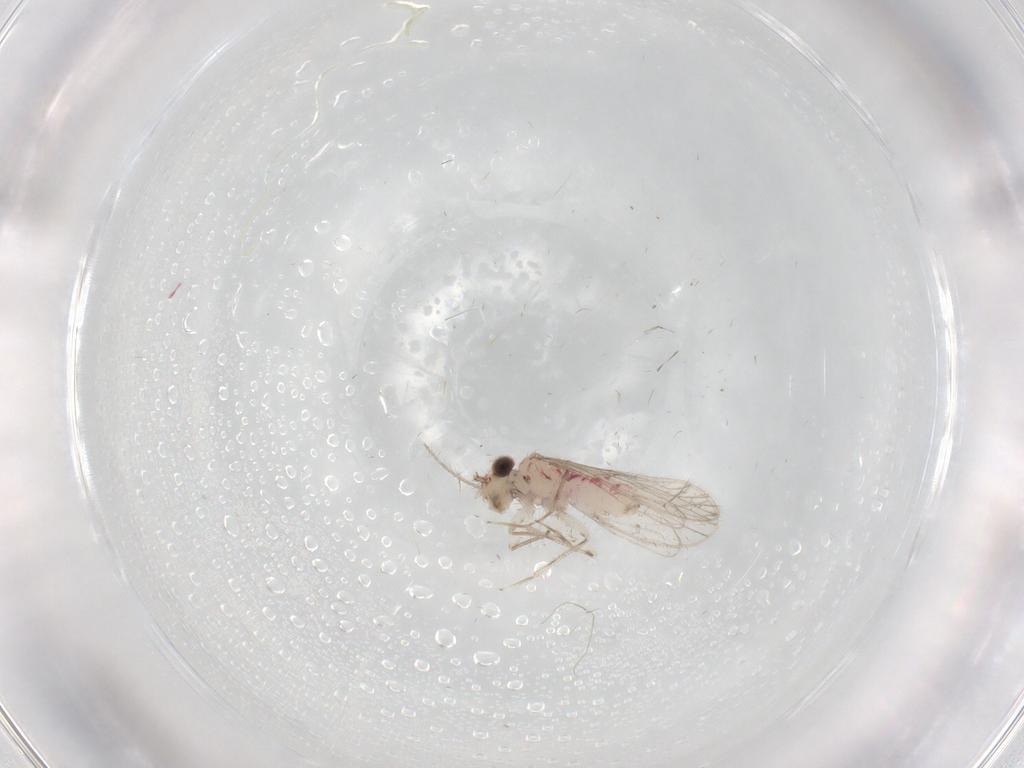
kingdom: Animalia
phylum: Arthropoda
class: Insecta
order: Psocodea
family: Caeciliusidae
